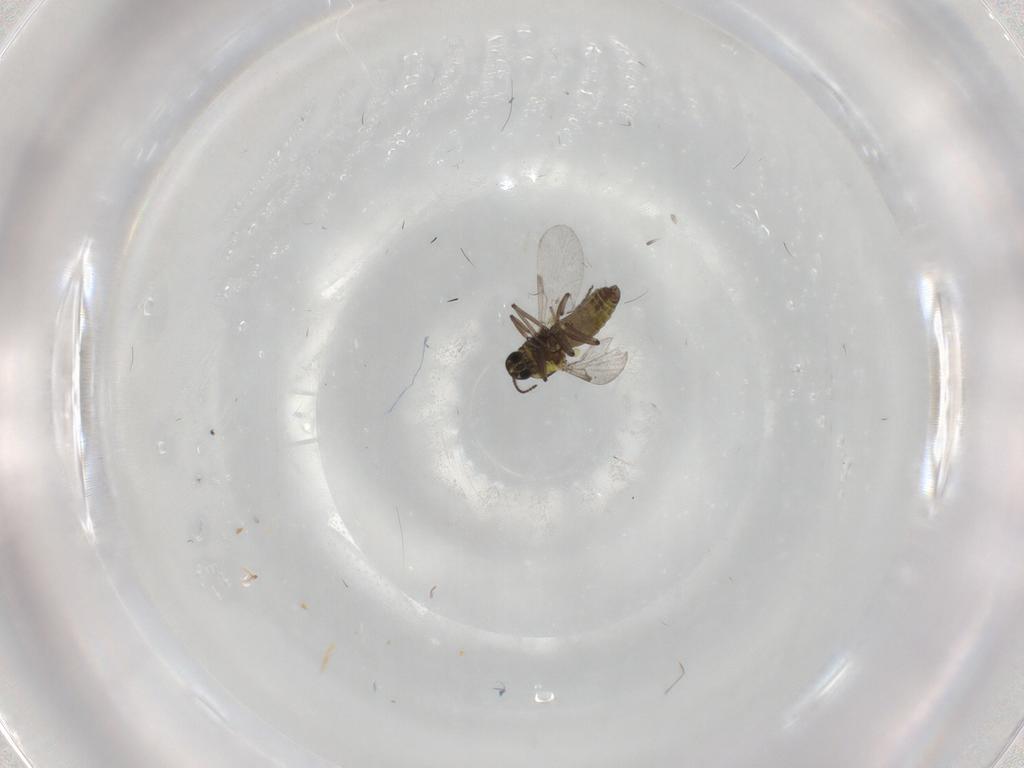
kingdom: Animalia
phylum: Arthropoda
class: Insecta
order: Diptera
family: Ceratopogonidae
